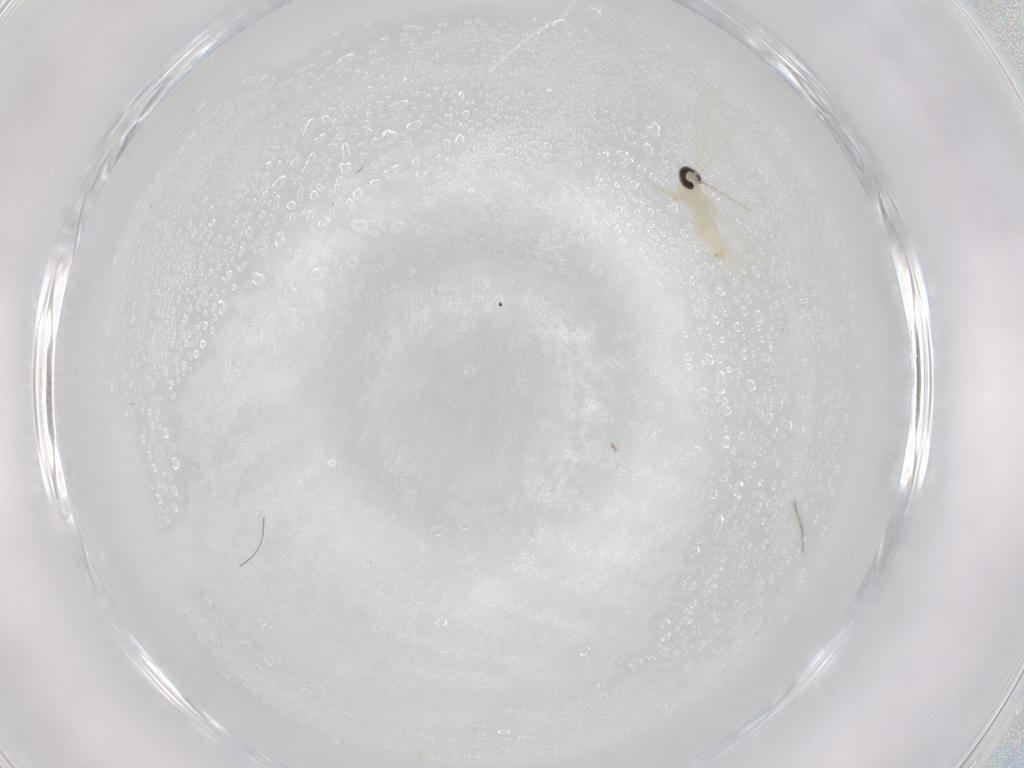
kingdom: Animalia
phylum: Arthropoda
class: Insecta
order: Diptera
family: Cecidomyiidae
